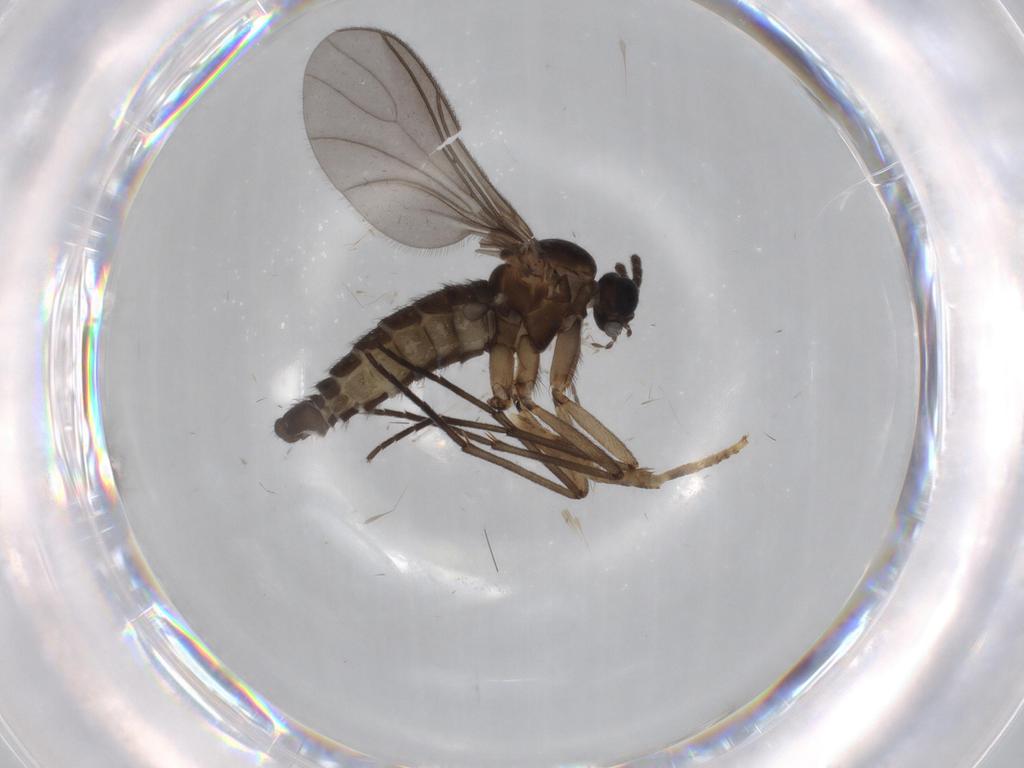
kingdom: Animalia
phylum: Arthropoda
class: Insecta
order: Diptera
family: Sciaridae
